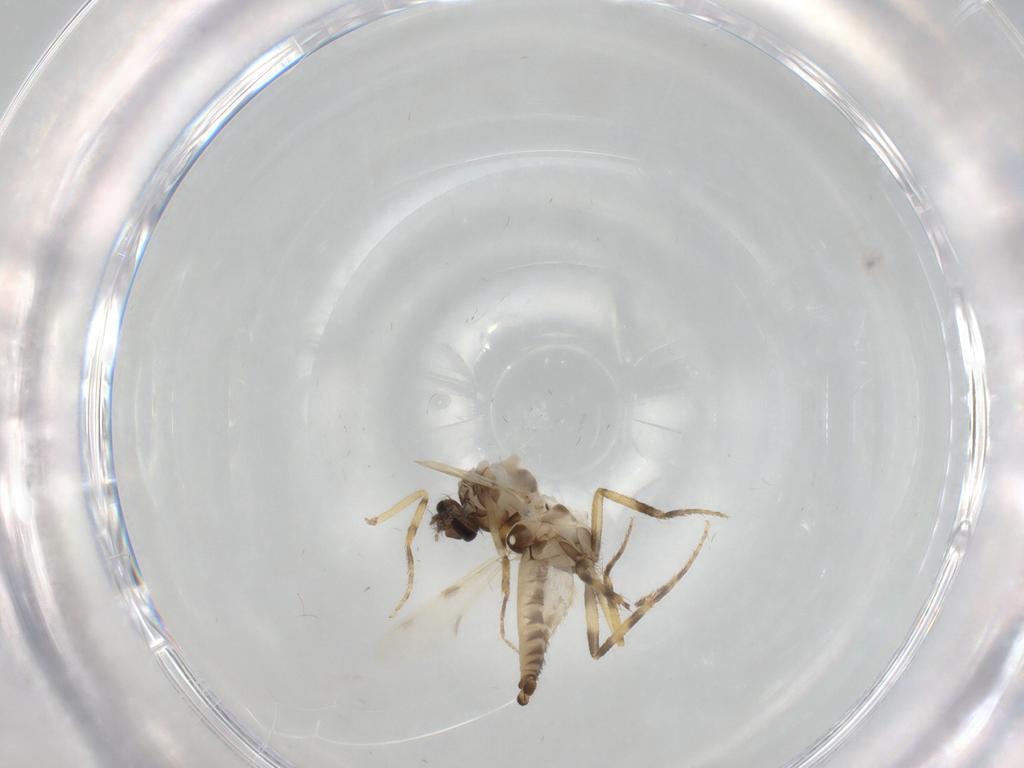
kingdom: Animalia
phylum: Arthropoda
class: Insecta
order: Diptera
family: Ceratopogonidae
